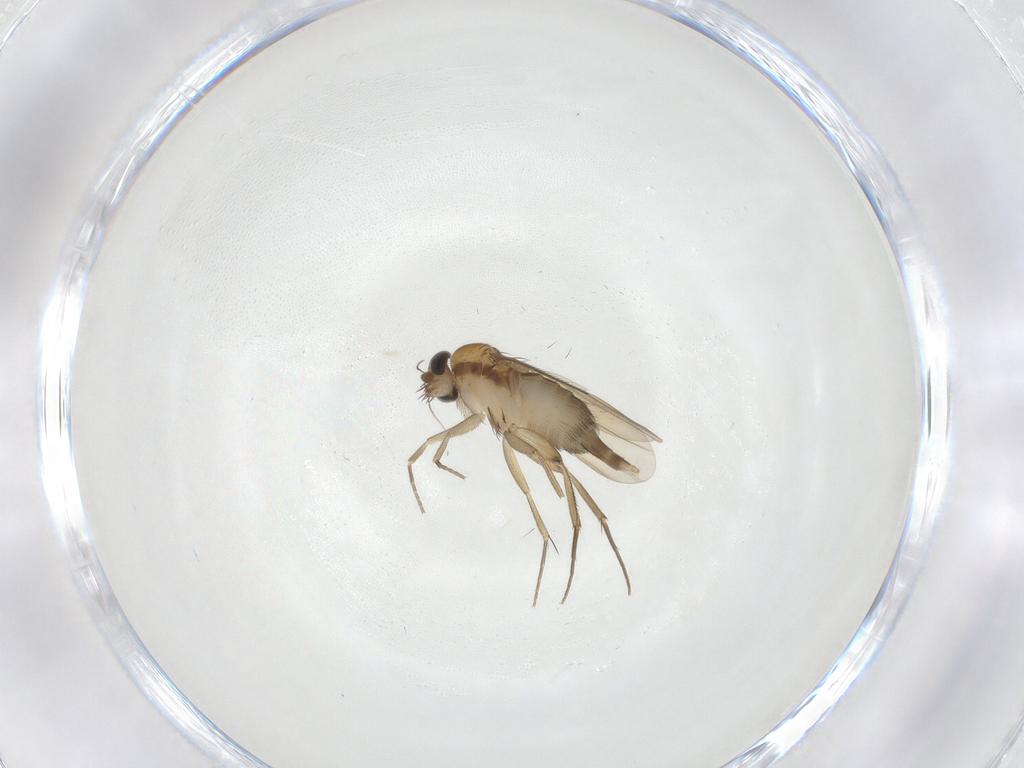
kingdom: Animalia
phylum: Arthropoda
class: Insecta
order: Diptera
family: Phoridae
